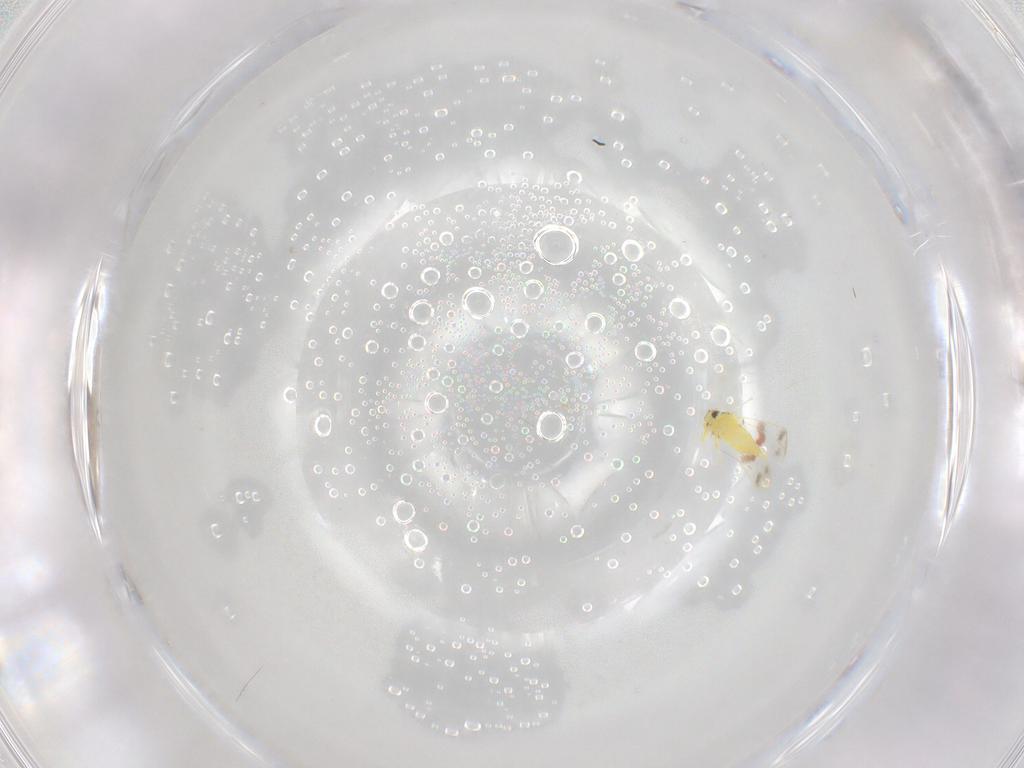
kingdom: Animalia
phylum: Arthropoda
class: Insecta
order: Hemiptera
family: Aleyrodidae
